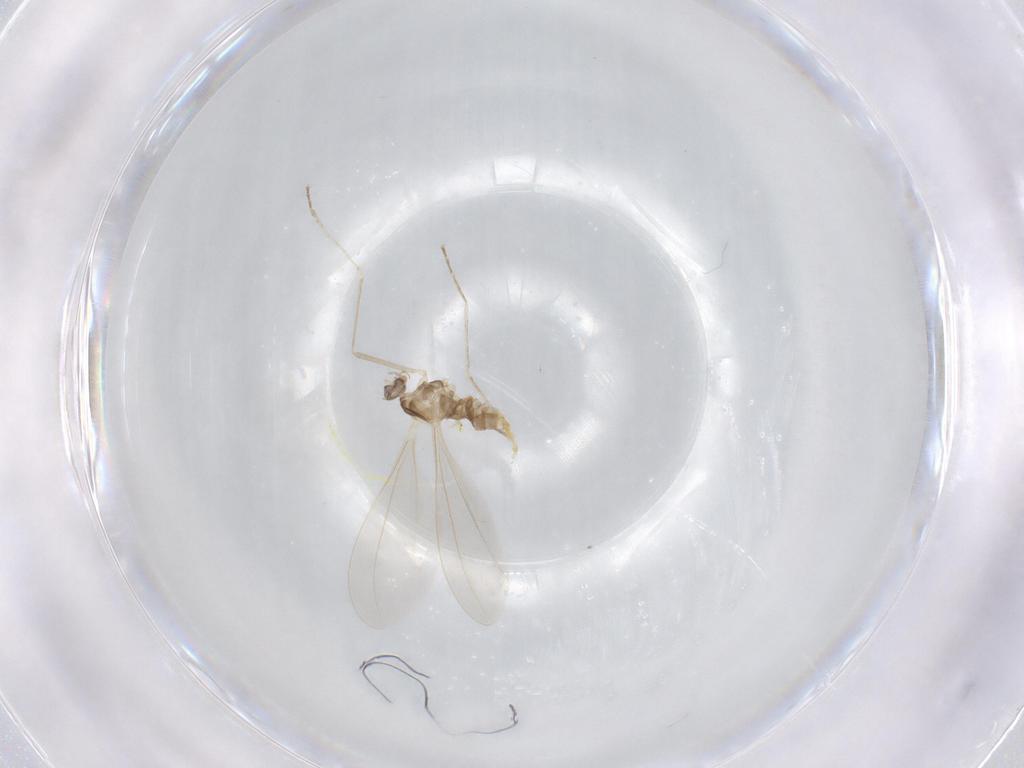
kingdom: Animalia
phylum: Arthropoda
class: Insecta
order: Diptera
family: Cecidomyiidae
